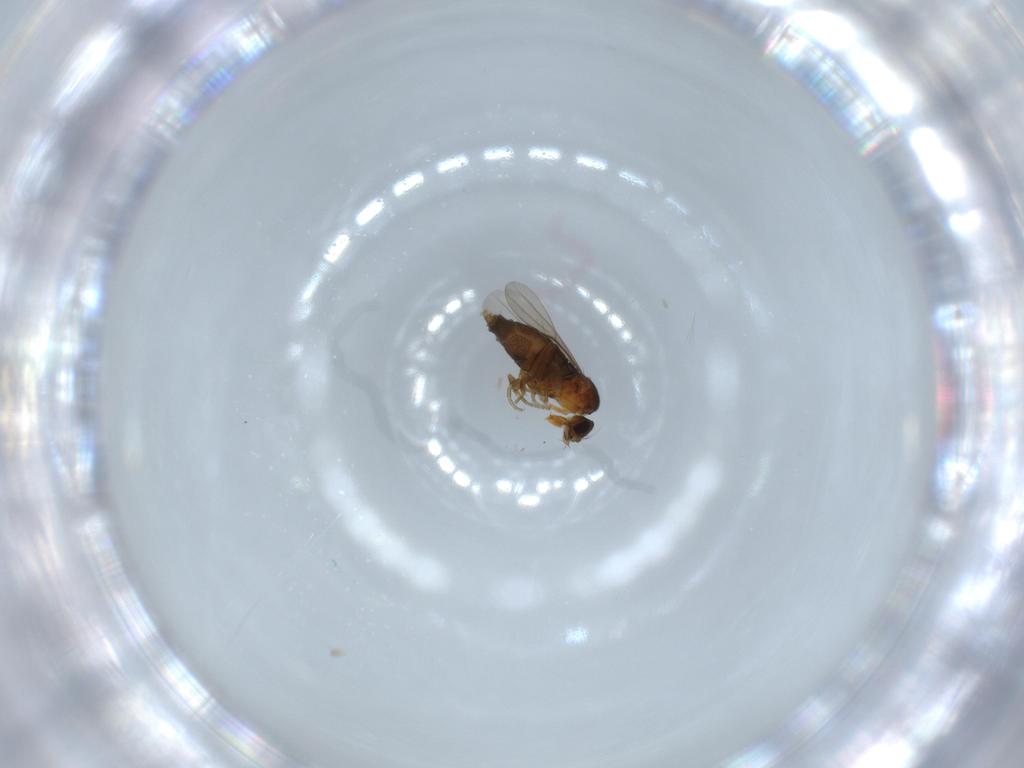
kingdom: Animalia
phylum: Arthropoda
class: Insecta
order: Diptera
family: Phoridae
